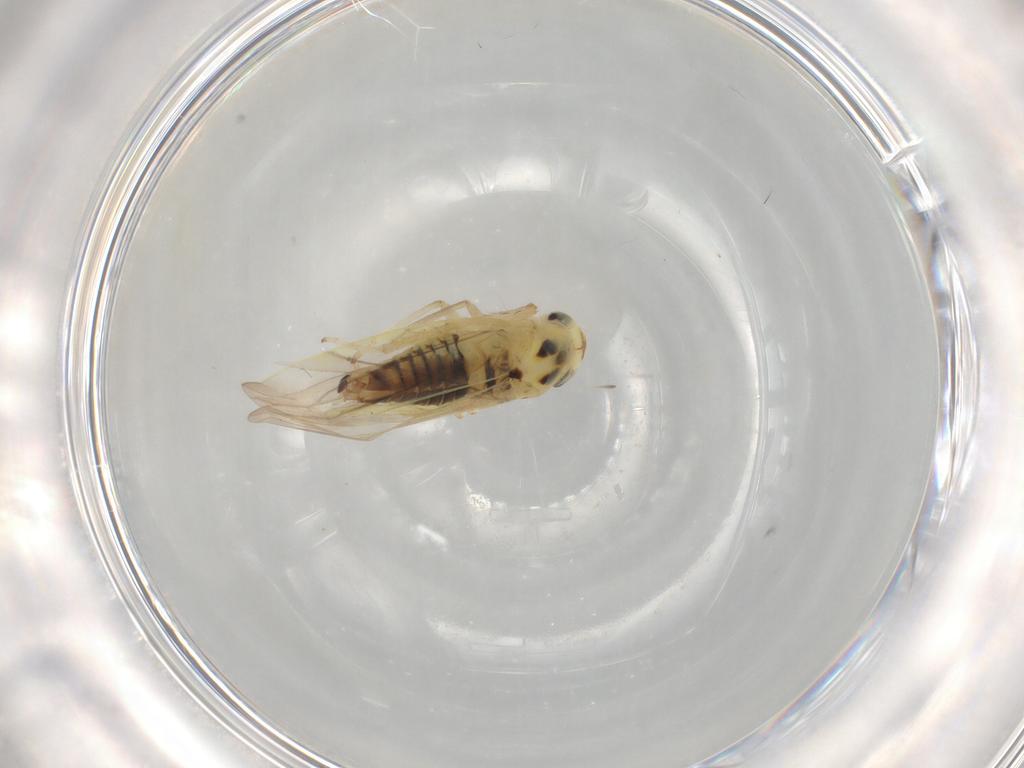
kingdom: Animalia
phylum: Arthropoda
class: Insecta
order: Hemiptera
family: Cicadellidae
